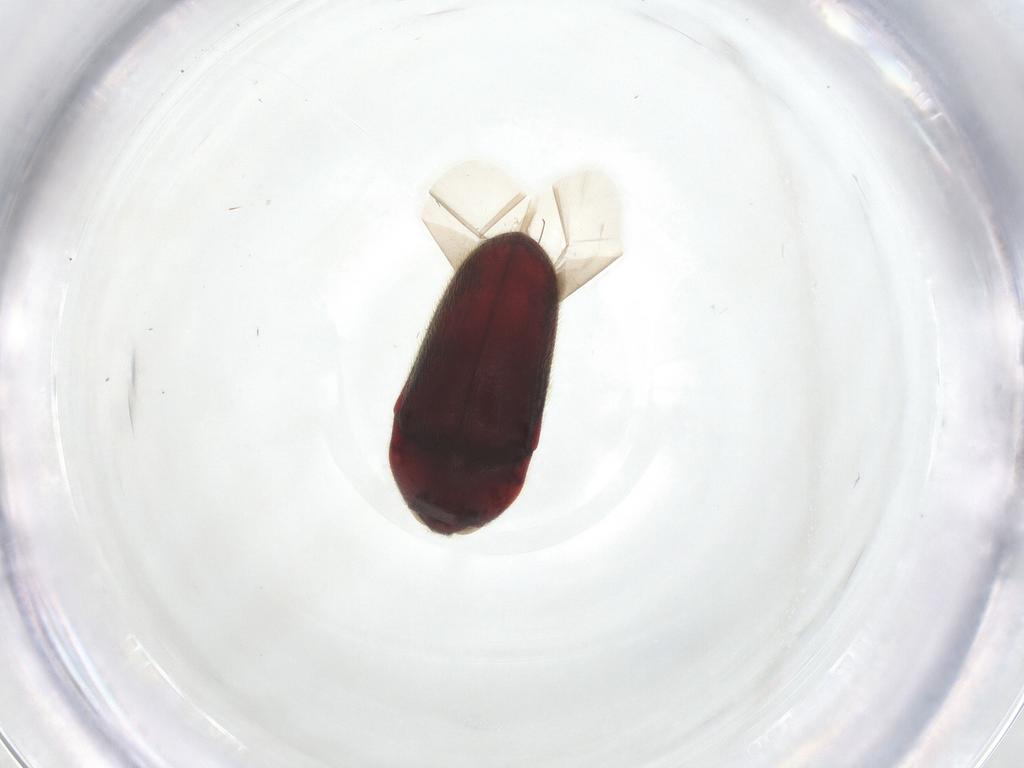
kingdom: Animalia
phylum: Arthropoda
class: Insecta
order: Coleoptera
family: Throscidae
